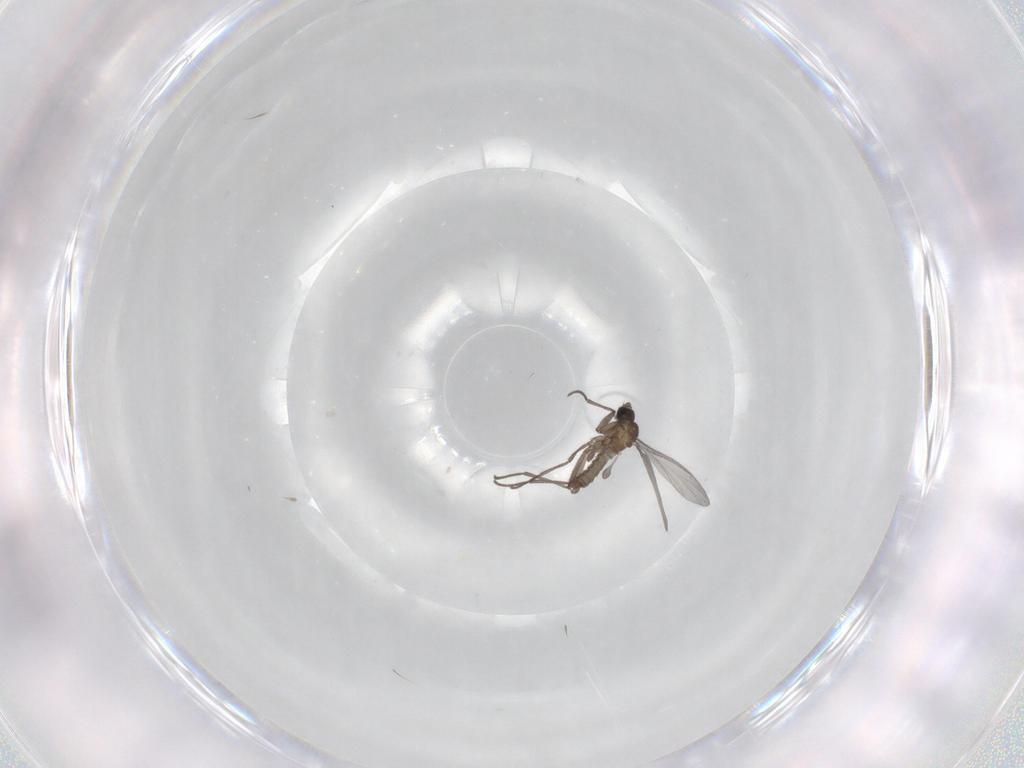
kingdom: Animalia
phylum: Arthropoda
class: Insecta
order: Diptera
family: Sciaridae
